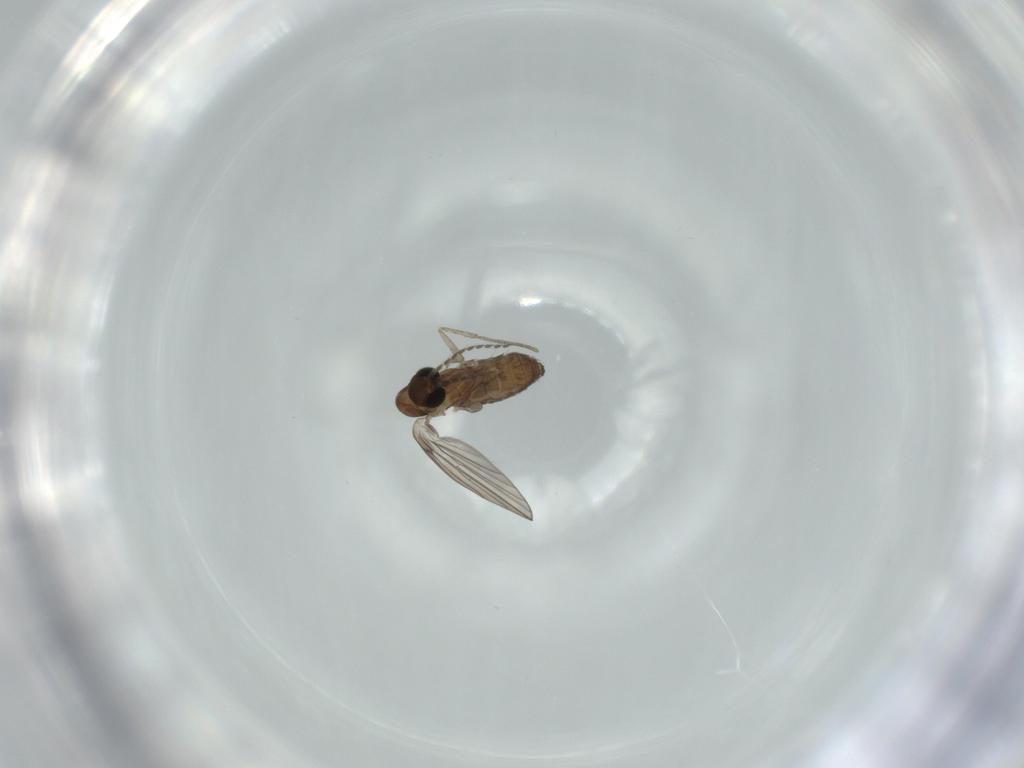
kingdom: Animalia
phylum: Arthropoda
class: Insecta
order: Diptera
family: Psychodidae
